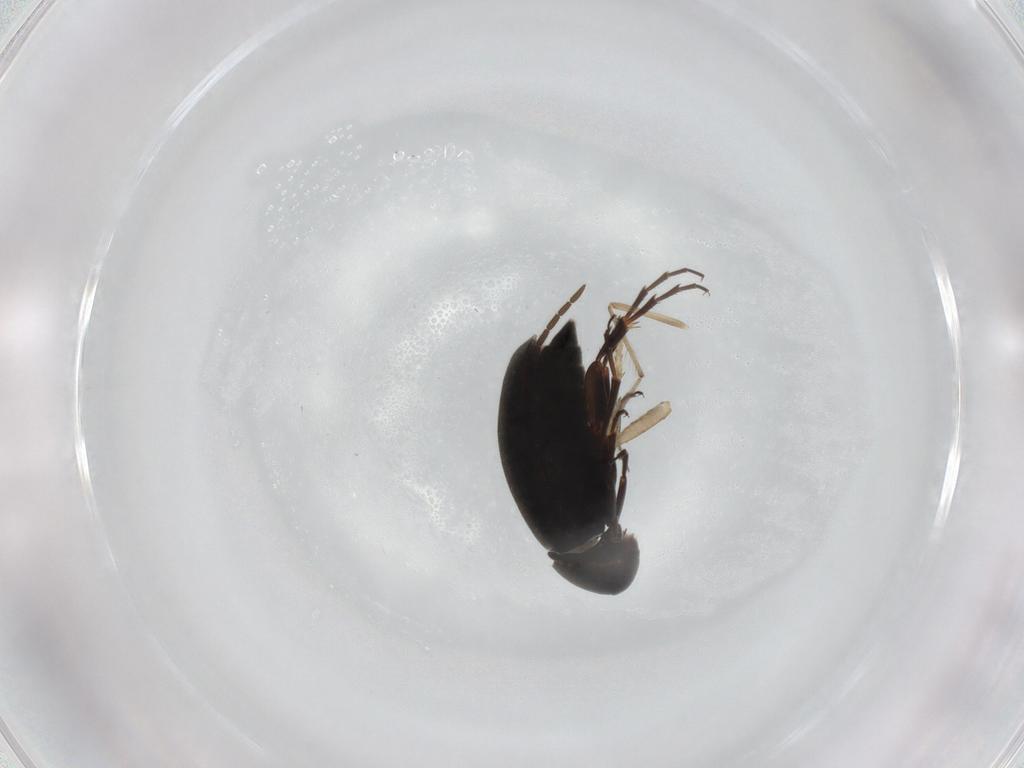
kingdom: Animalia
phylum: Arthropoda
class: Insecta
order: Coleoptera
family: Scraptiidae
